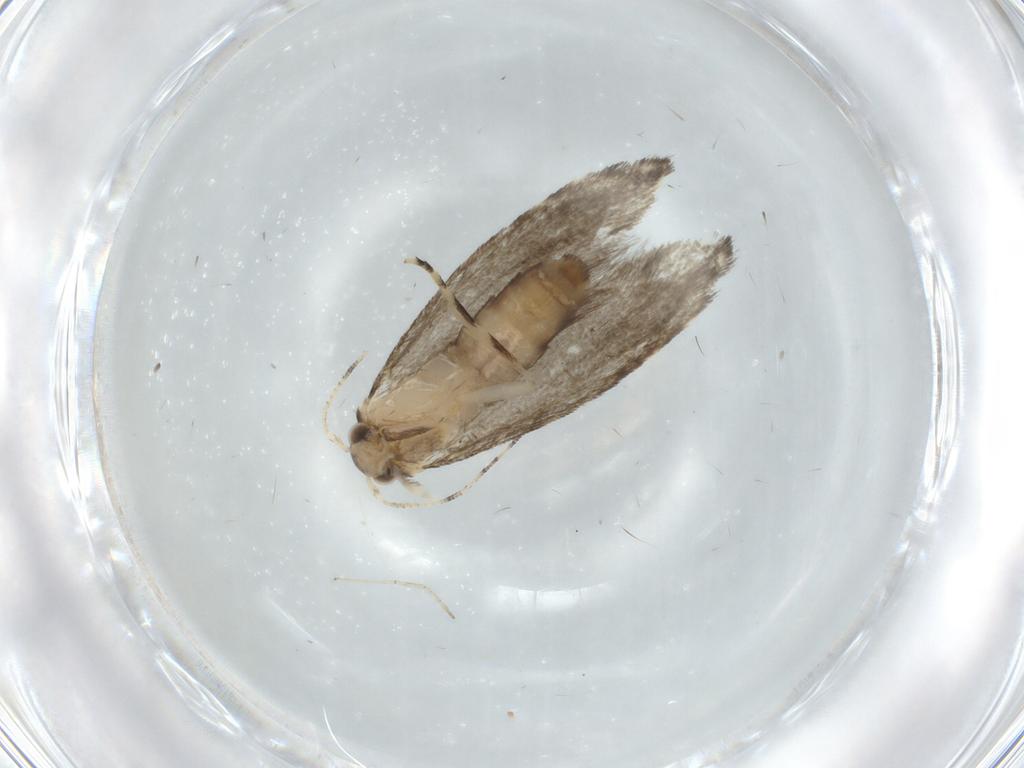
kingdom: Animalia
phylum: Arthropoda
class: Insecta
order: Lepidoptera
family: Tineidae
